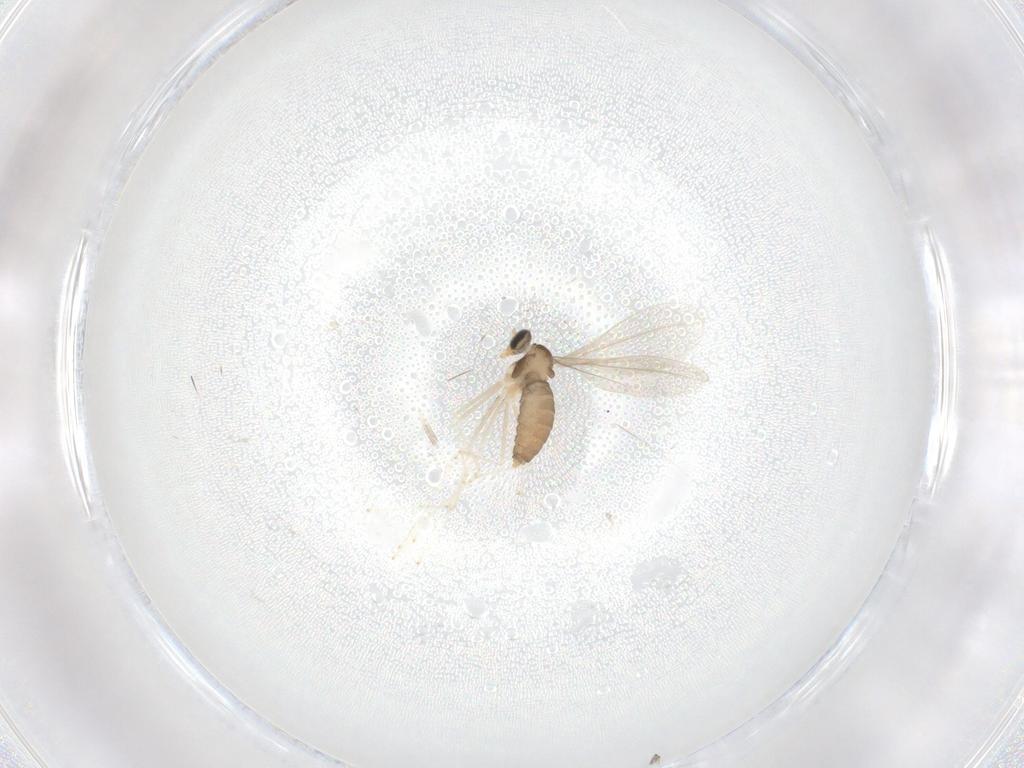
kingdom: Animalia
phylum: Arthropoda
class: Insecta
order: Diptera
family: Cecidomyiidae
